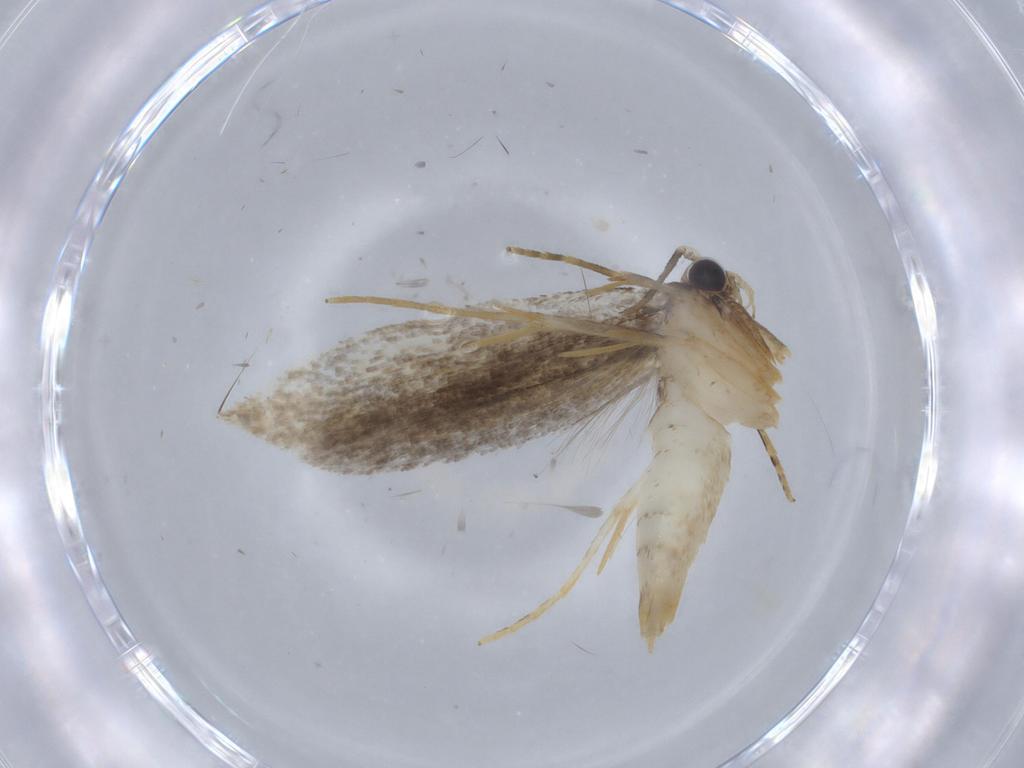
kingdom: Animalia
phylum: Arthropoda
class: Insecta
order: Lepidoptera
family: Tineidae
